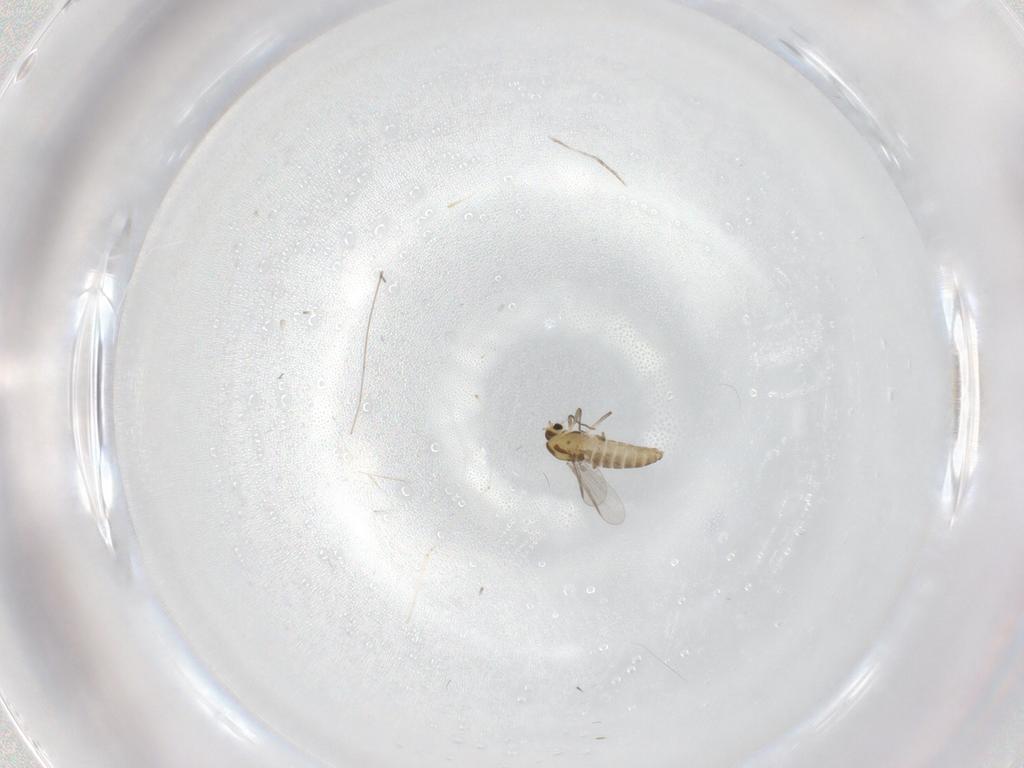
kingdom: Animalia
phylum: Arthropoda
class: Insecta
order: Diptera
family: Chironomidae
